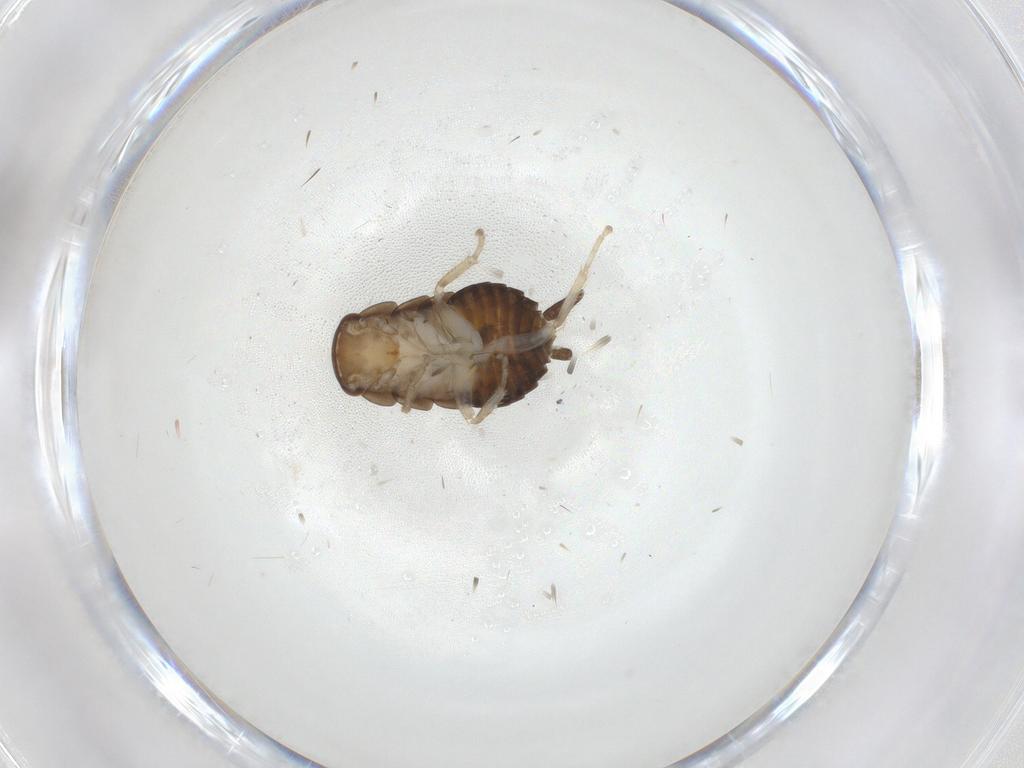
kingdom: Animalia
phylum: Arthropoda
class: Insecta
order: Blattodea
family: Ectobiidae
